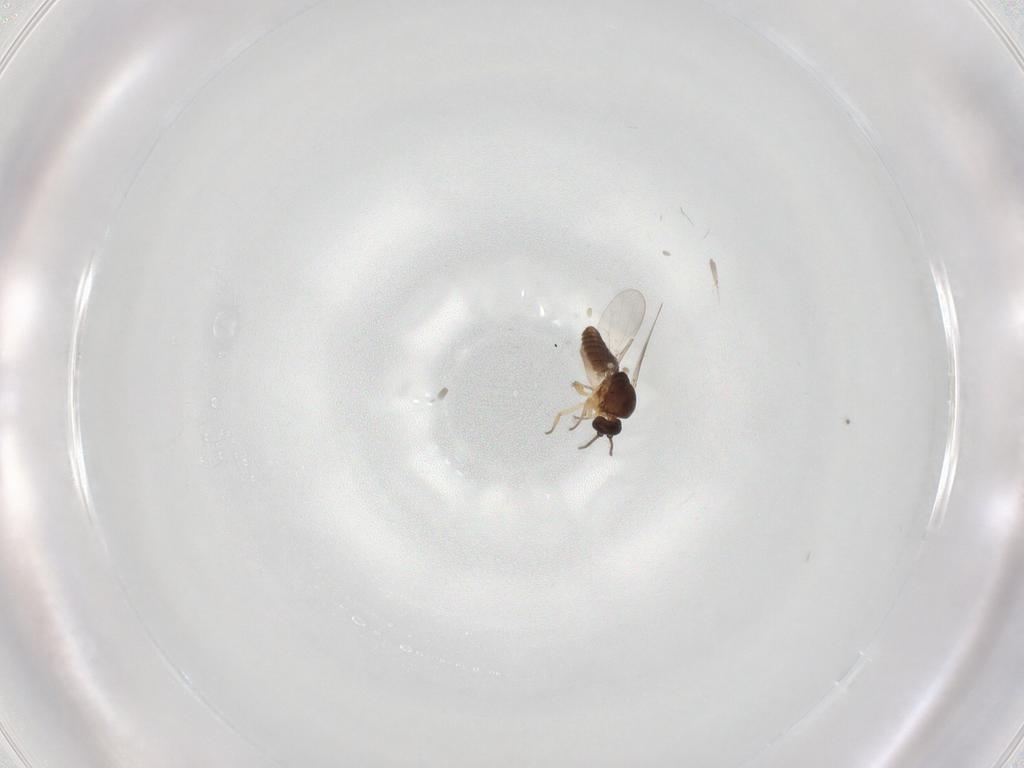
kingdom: Animalia
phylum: Arthropoda
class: Insecta
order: Diptera
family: Ceratopogonidae
